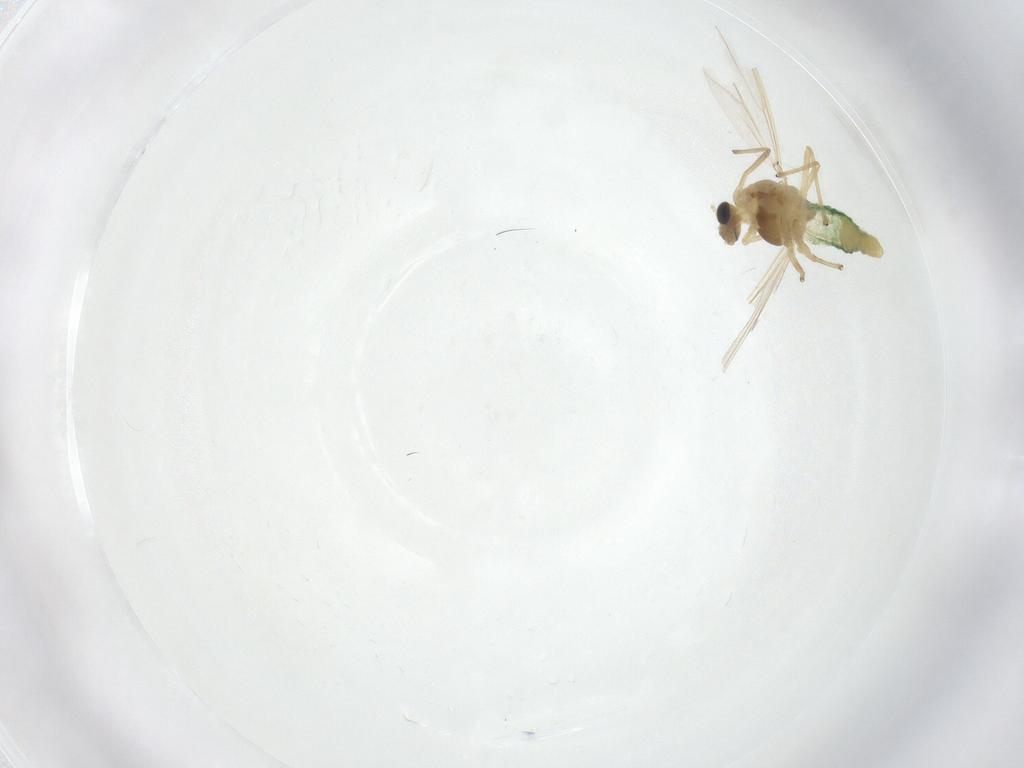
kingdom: Animalia
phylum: Arthropoda
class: Insecta
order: Diptera
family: Chironomidae
